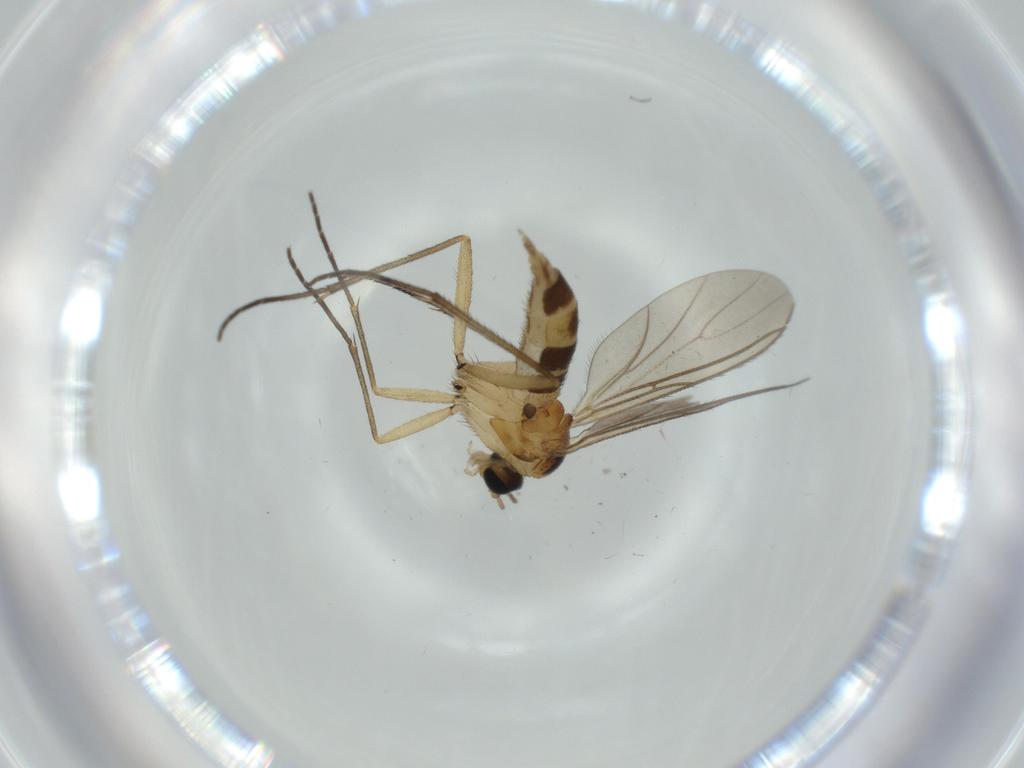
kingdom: Animalia
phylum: Arthropoda
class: Insecta
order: Diptera
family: Sciaridae
